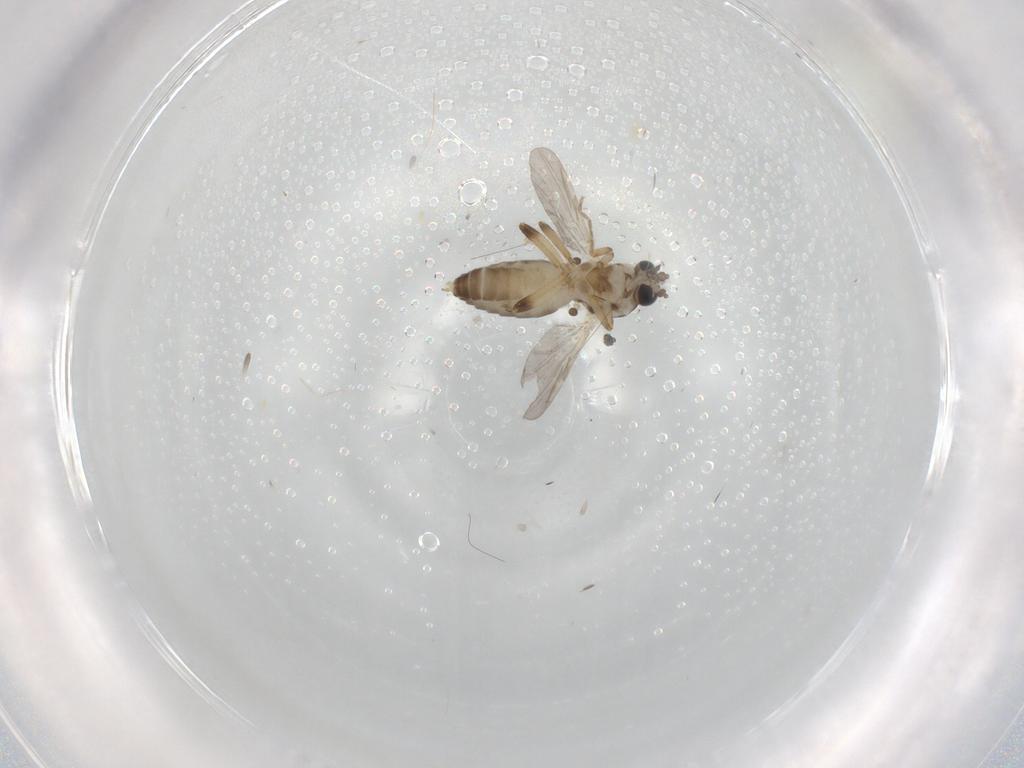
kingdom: Animalia
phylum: Arthropoda
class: Insecta
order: Diptera
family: Ceratopogonidae
